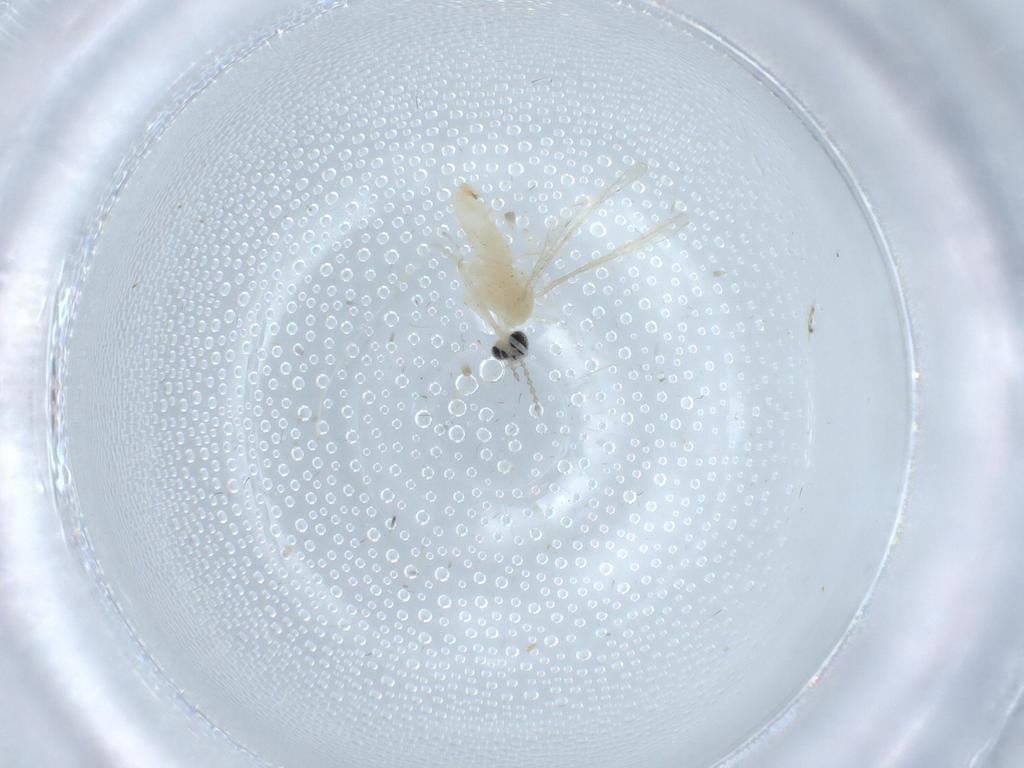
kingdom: Animalia
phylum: Arthropoda
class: Insecta
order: Diptera
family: Cecidomyiidae
